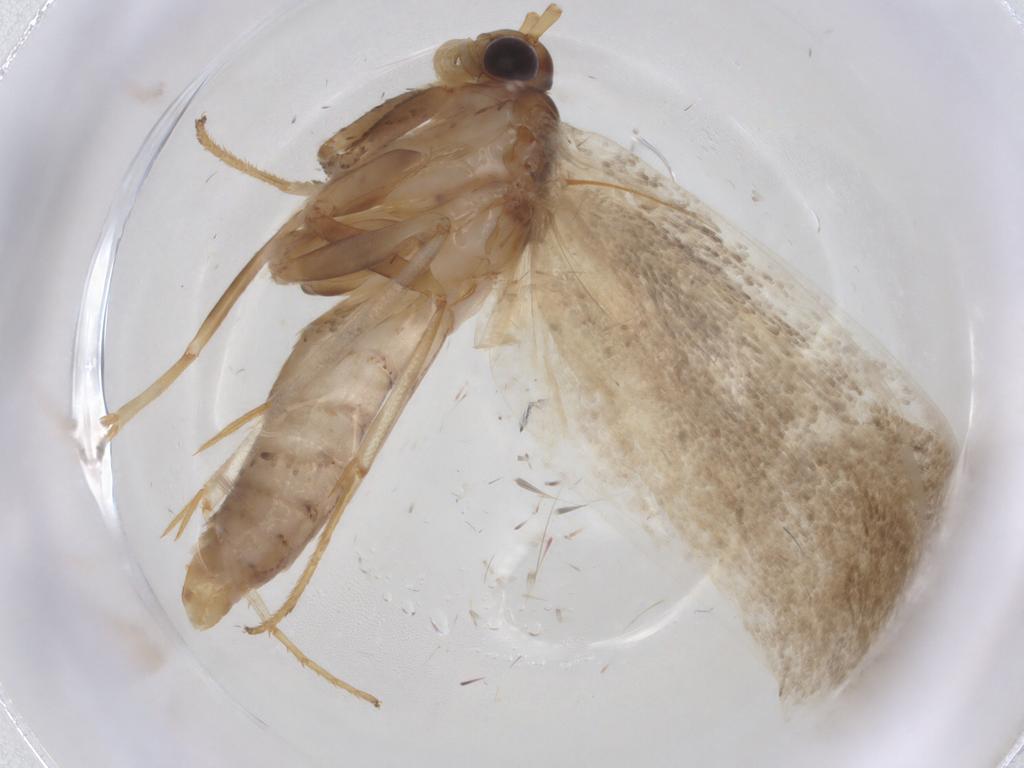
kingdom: Animalia
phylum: Arthropoda
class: Insecta
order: Lepidoptera
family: Depressariidae
